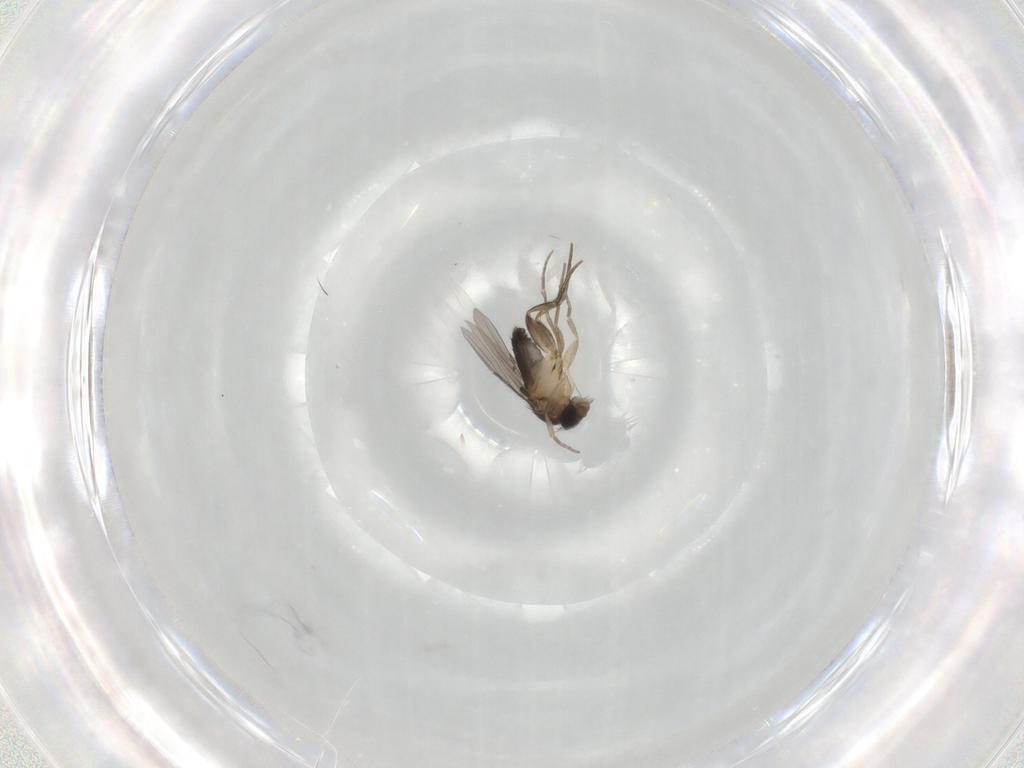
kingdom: Animalia
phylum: Arthropoda
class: Insecta
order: Diptera
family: Phoridae
